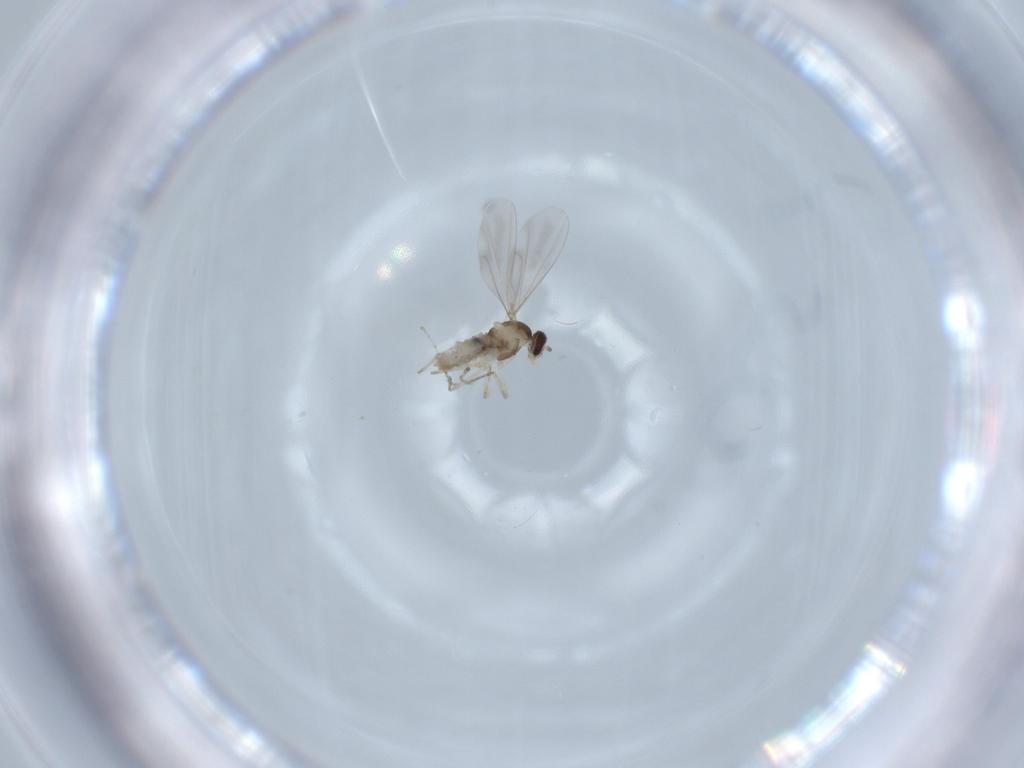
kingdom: Animalia
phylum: Arthropoda
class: Insecta
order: Diptera
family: Cecidomyiidae
